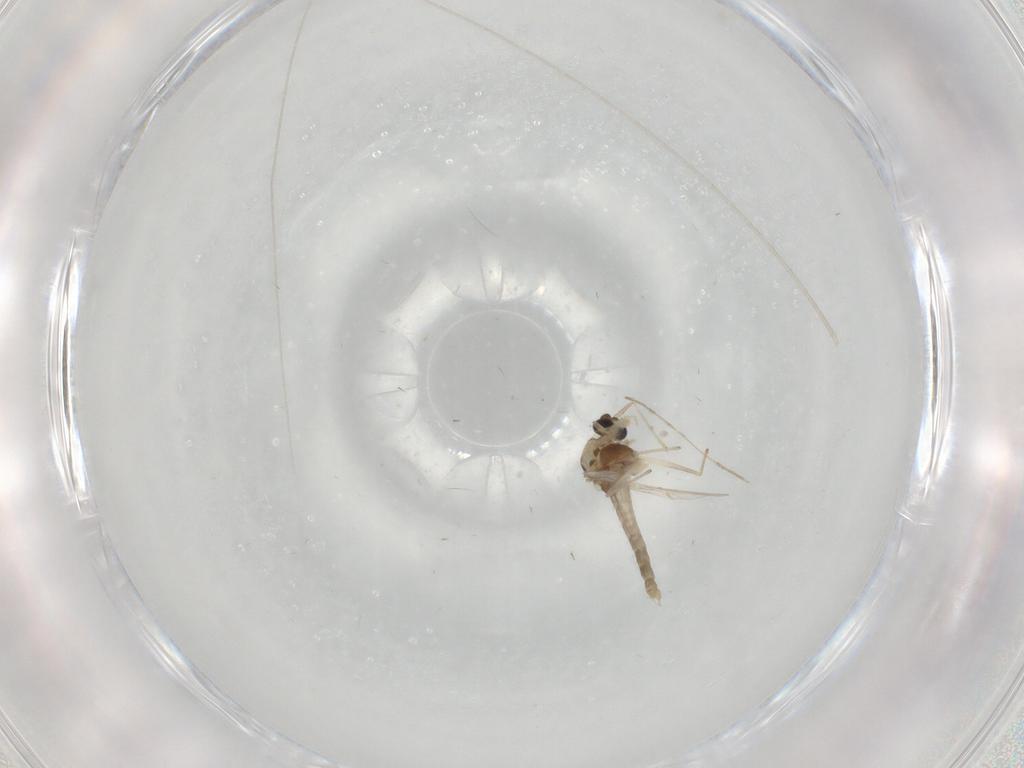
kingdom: Animalia
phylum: Arthropoda
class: Insecta
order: Diptera
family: Chironomidae
